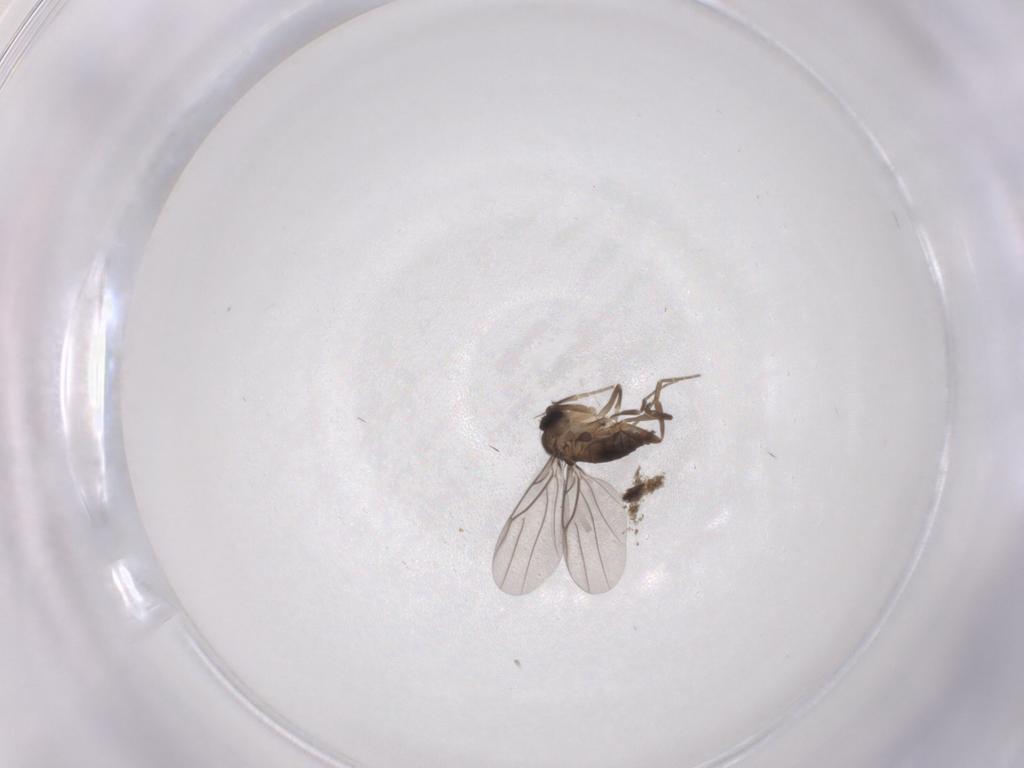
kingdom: Animalia
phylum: Arthropoda
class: Insecta
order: Diptera
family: Phoridae
